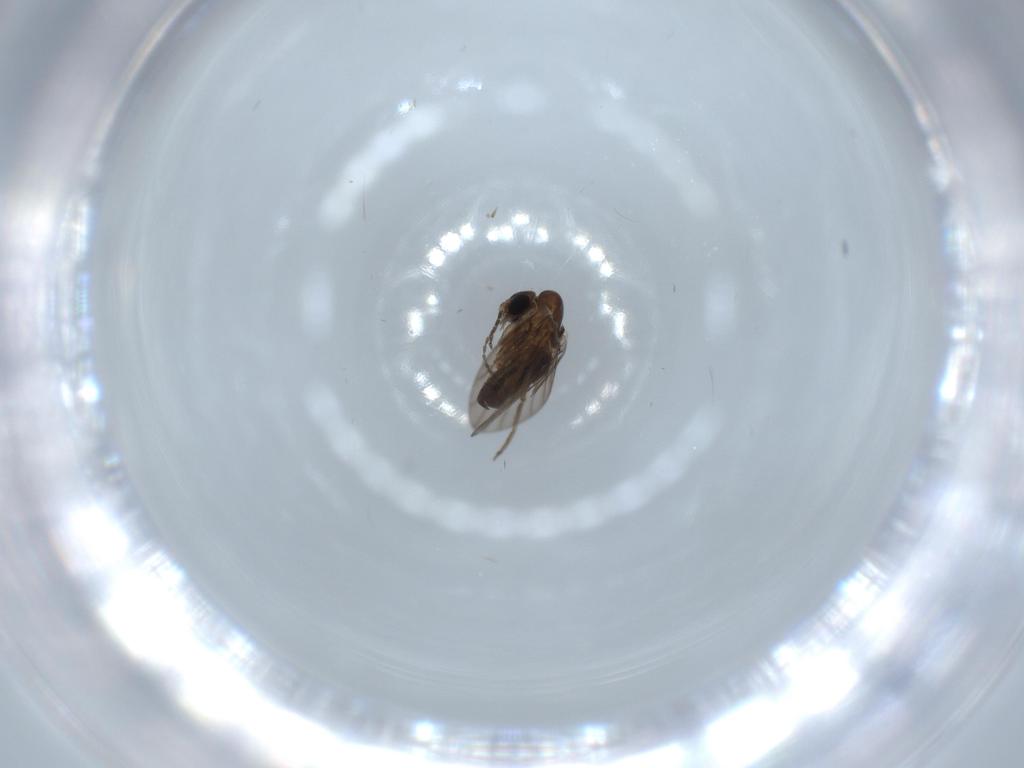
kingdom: Animalia
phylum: Arthropoda
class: Insecta
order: Diptera
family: Psychodidae
